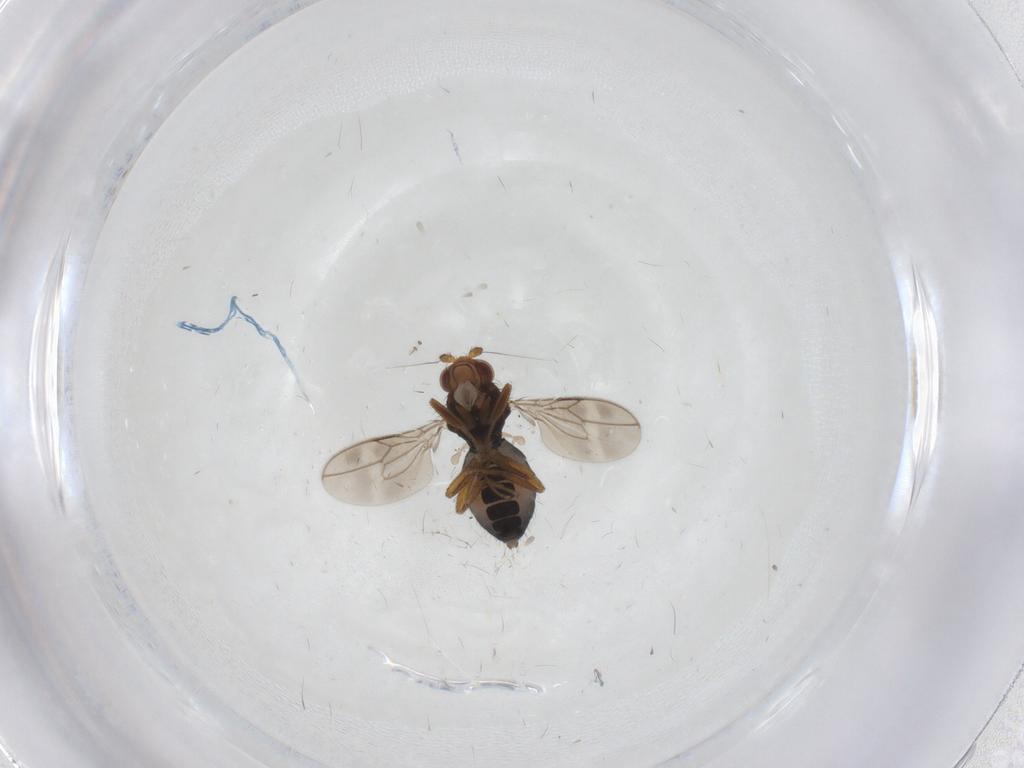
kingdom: Animalia
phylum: Arthropoda
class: Insecta
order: Diptera
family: Sphaeroceridae
